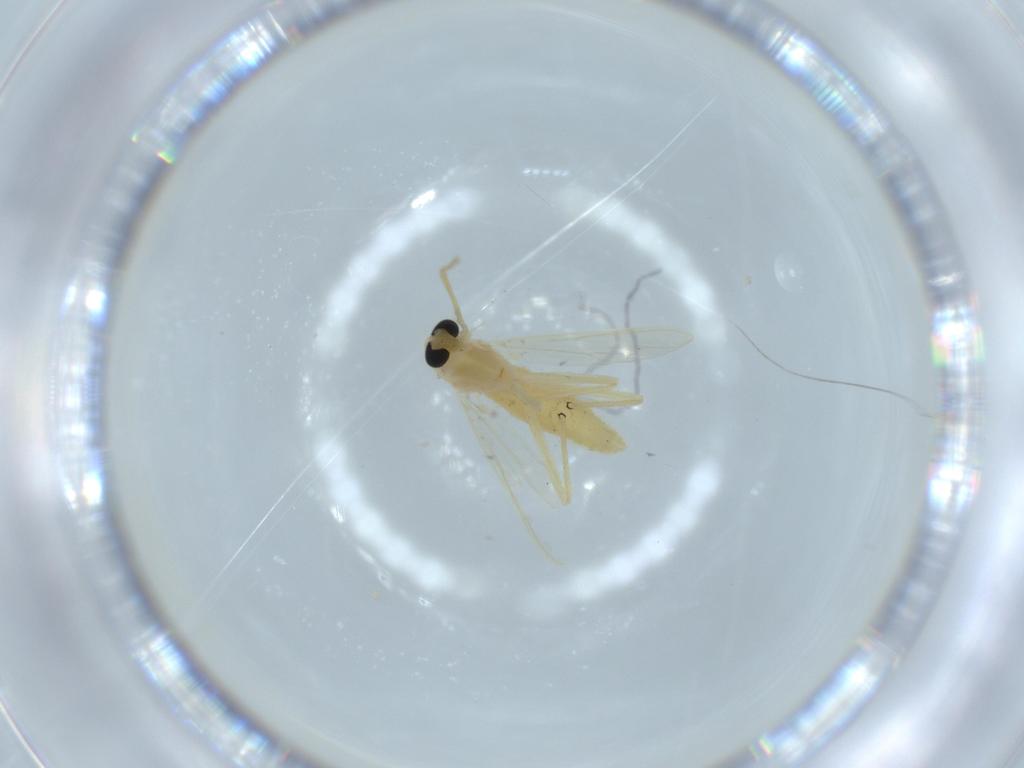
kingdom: Animalia
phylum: Arthropoda
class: Insecta
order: Diptera
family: Chironomidae
